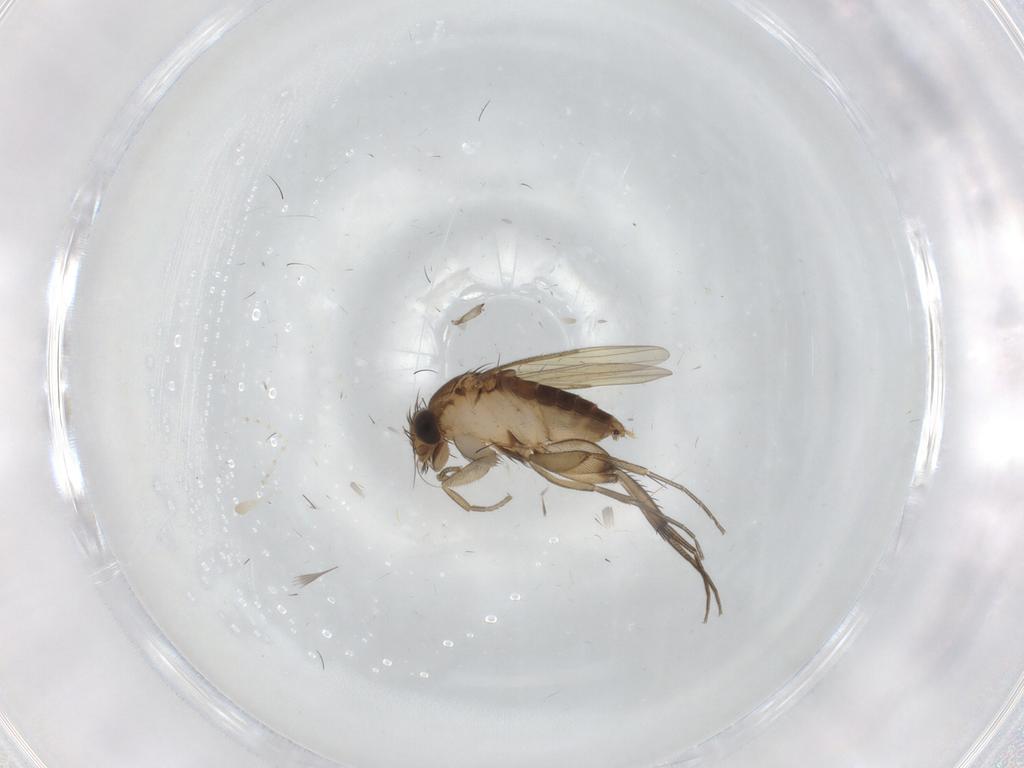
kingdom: Animalia
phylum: Arthropoda
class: Insecta
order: Diptera
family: Phoridae
